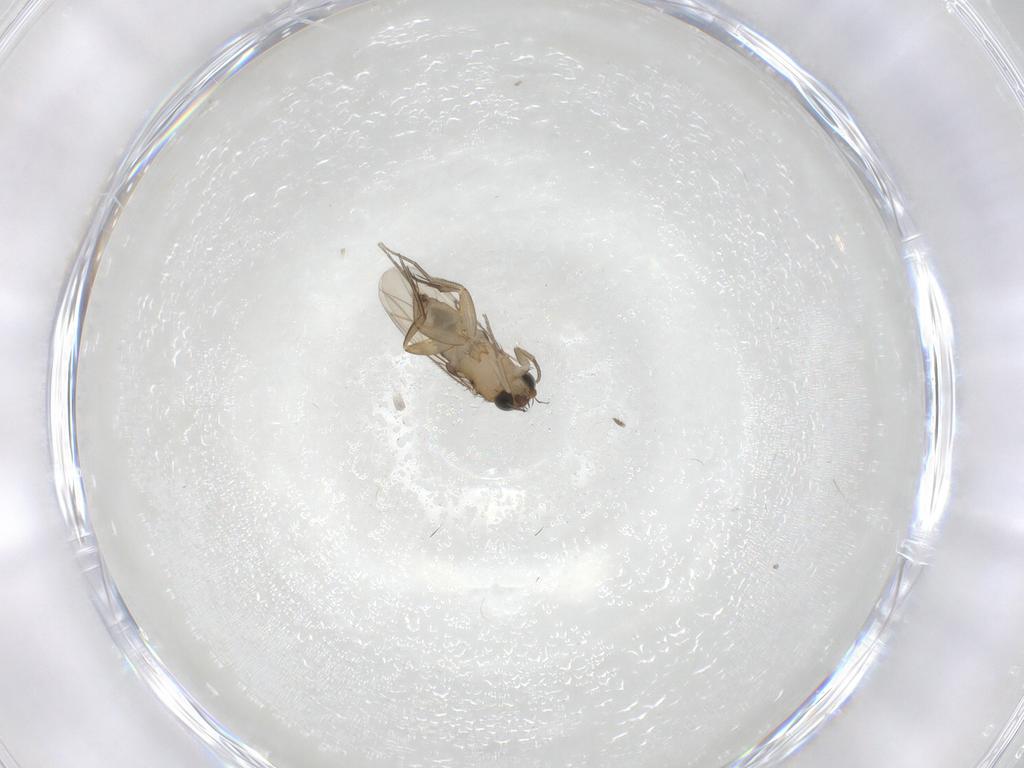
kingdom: Animalia
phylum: Arthropoda
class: Insecta
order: Diptera
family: Phoridae
